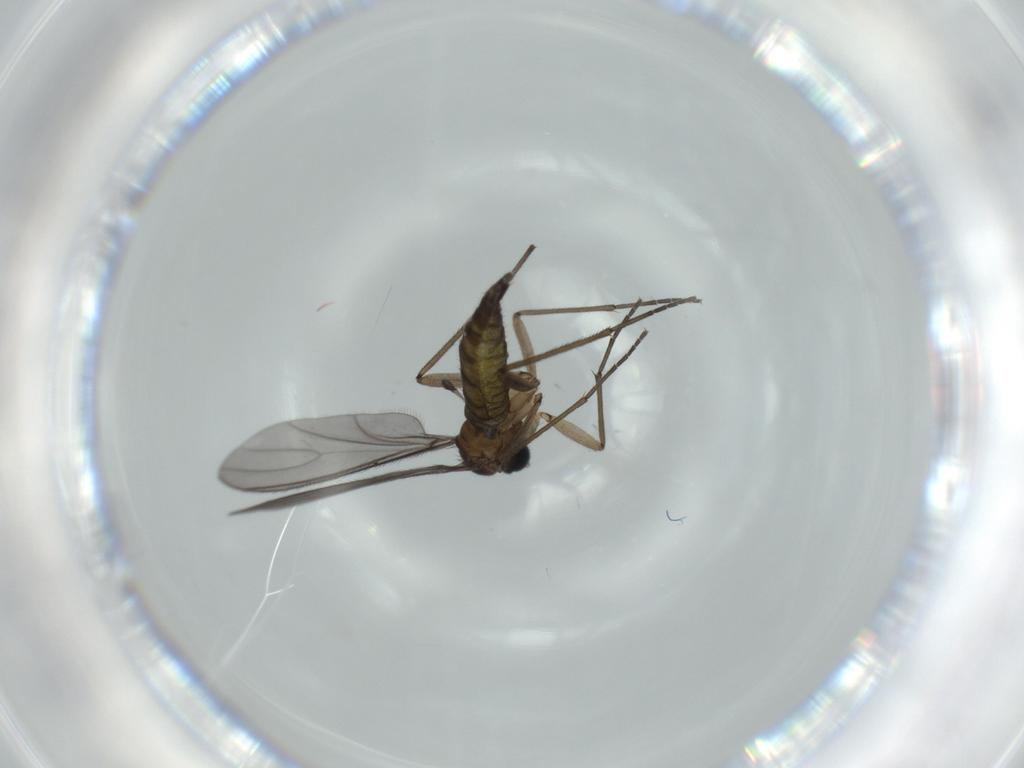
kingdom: Animalia
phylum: Arthropoda
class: Insecta
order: Diptera
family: Sciaridae
